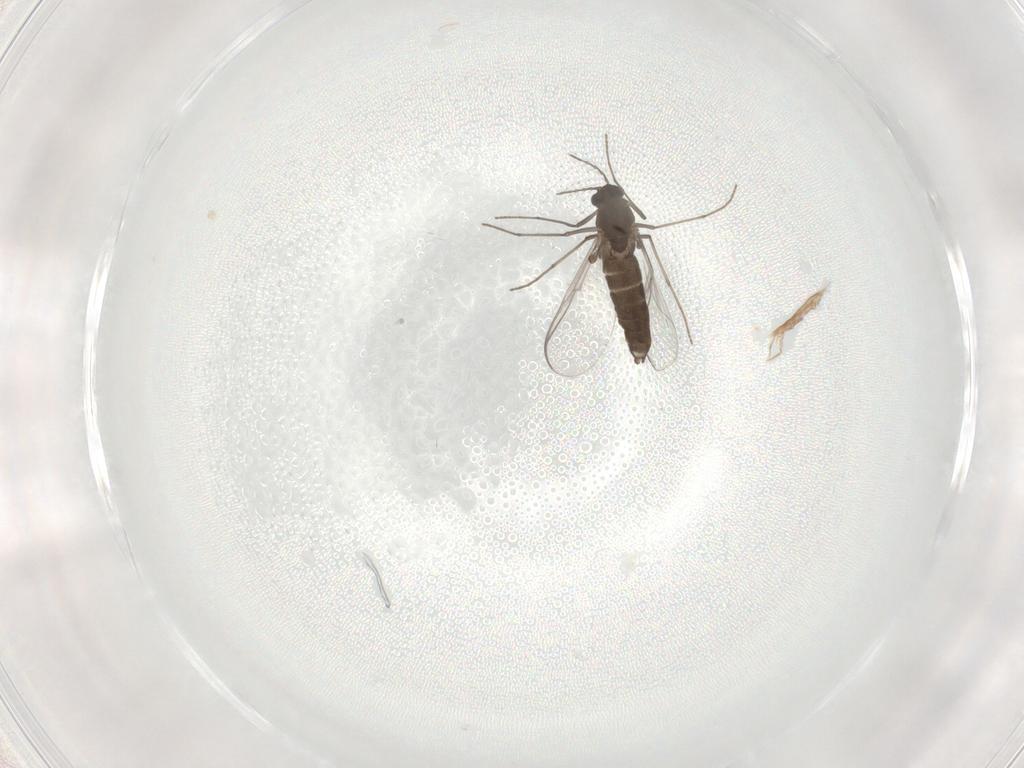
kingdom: Animalia
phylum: Arthropoda
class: Insecta
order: Diptera
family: Chironomidae
